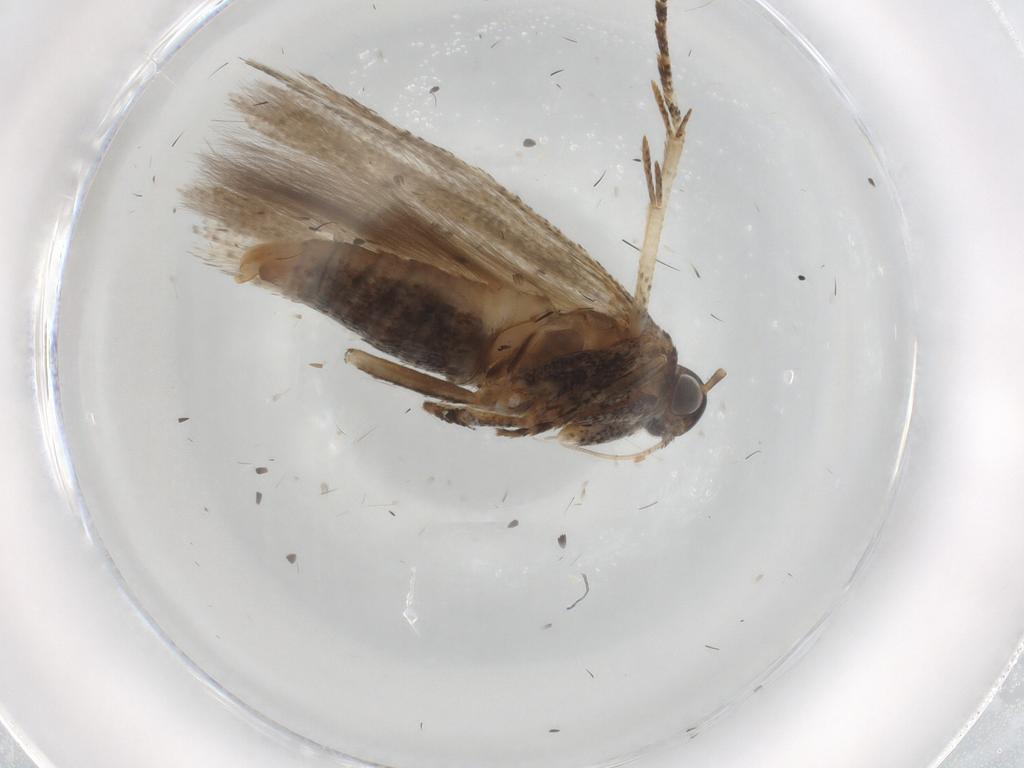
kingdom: Animalia
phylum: Arthropoda
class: Insecta
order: Lepidoptera
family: Gelechiidae
